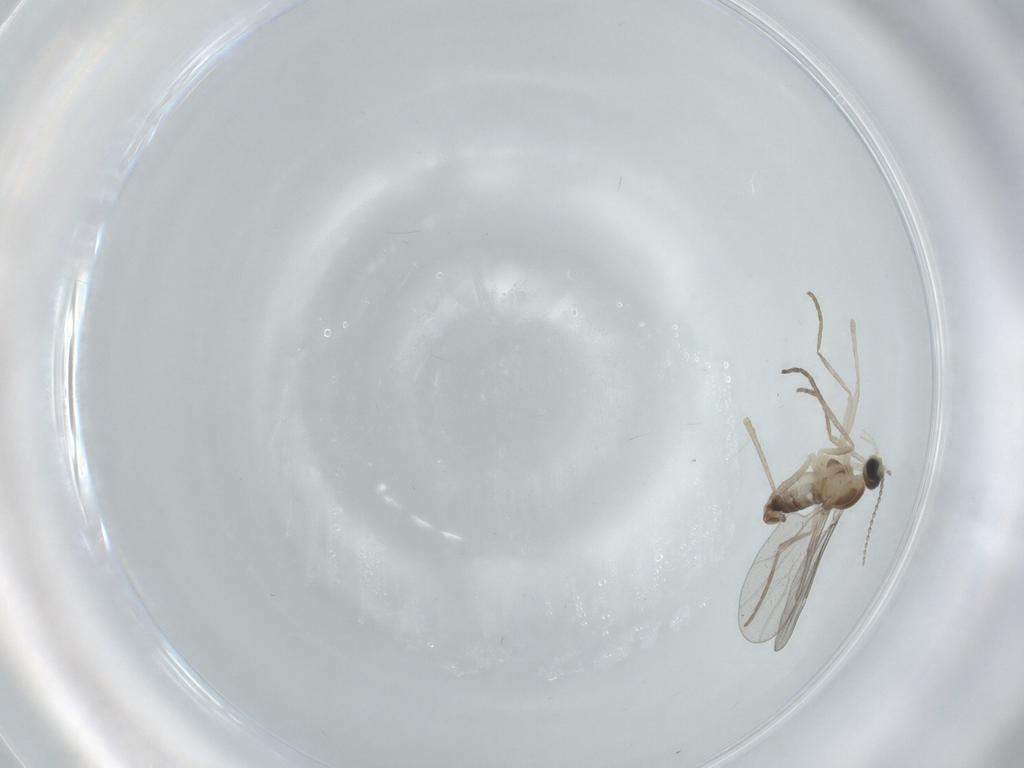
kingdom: Animalia
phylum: Arthropoda
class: Insecta
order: Diptera
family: Cecidomyiidae
